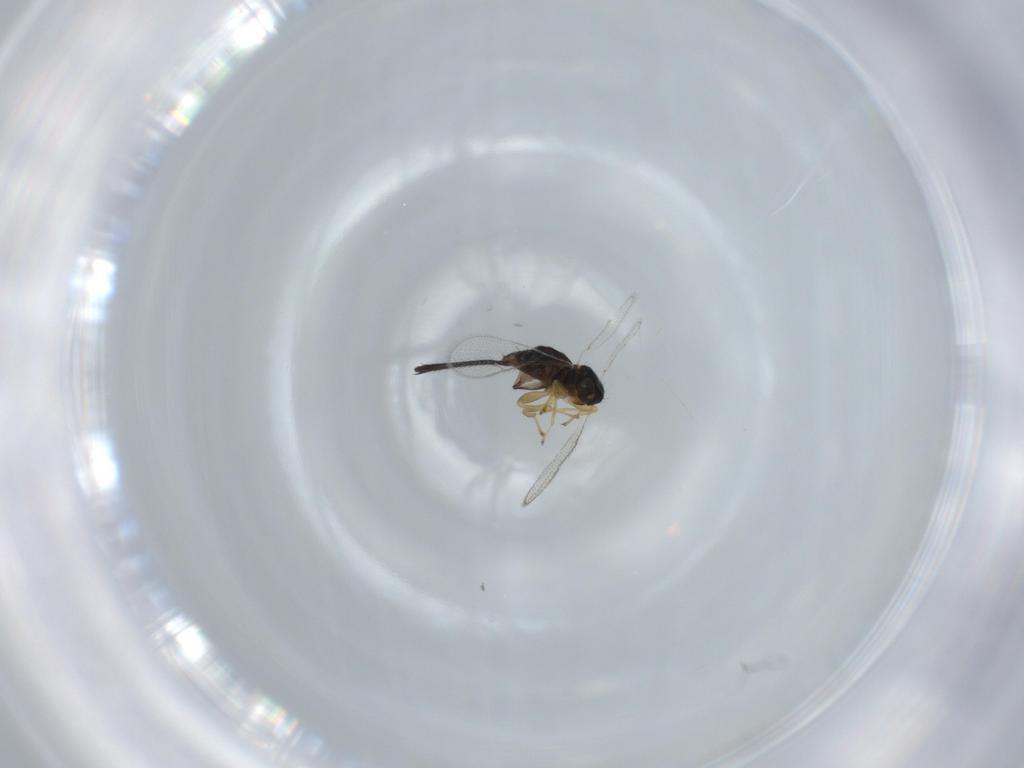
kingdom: Animalia
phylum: Arthropoda
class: Insecta
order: Hymenoptera
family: Torymidae
